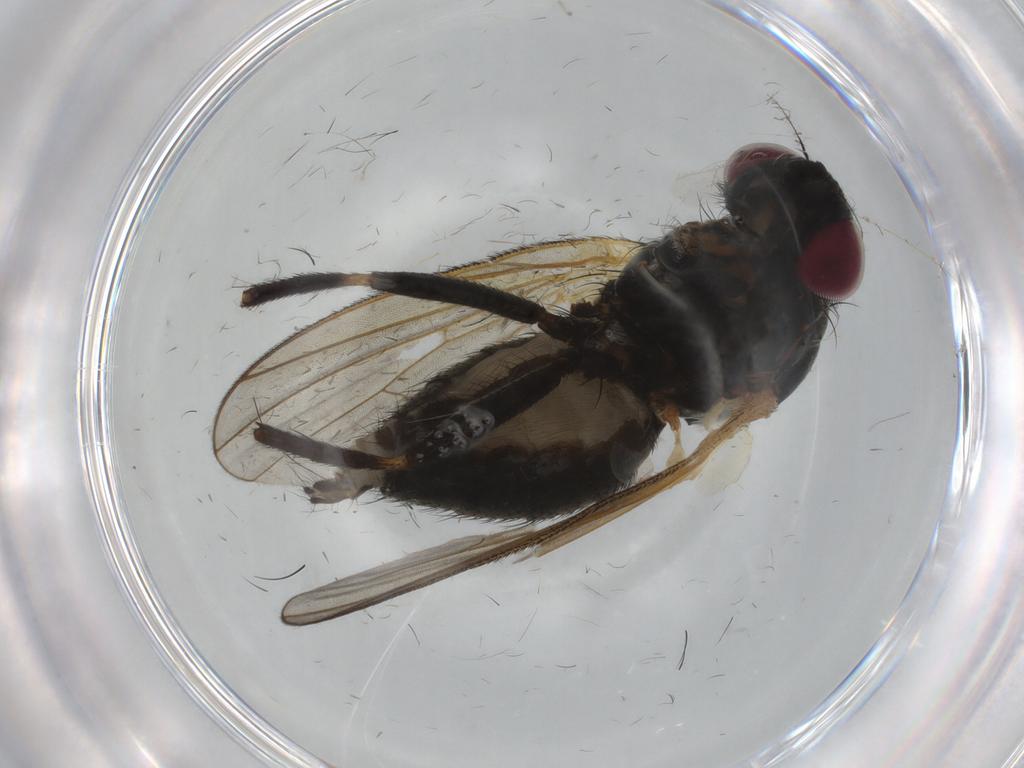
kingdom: Animalia
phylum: Arthropoda
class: Insecta
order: Diptera
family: Fannia
